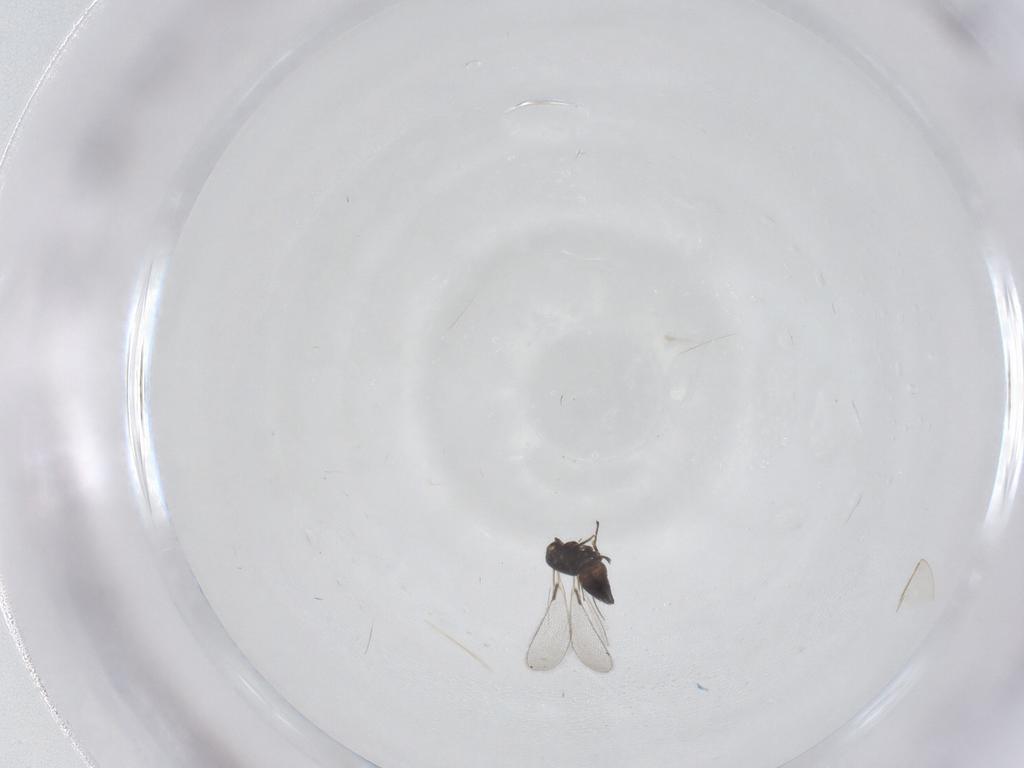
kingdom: Animalia
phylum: Arthropoda
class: Insecta
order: Hymenoptera
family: Mymaridae
